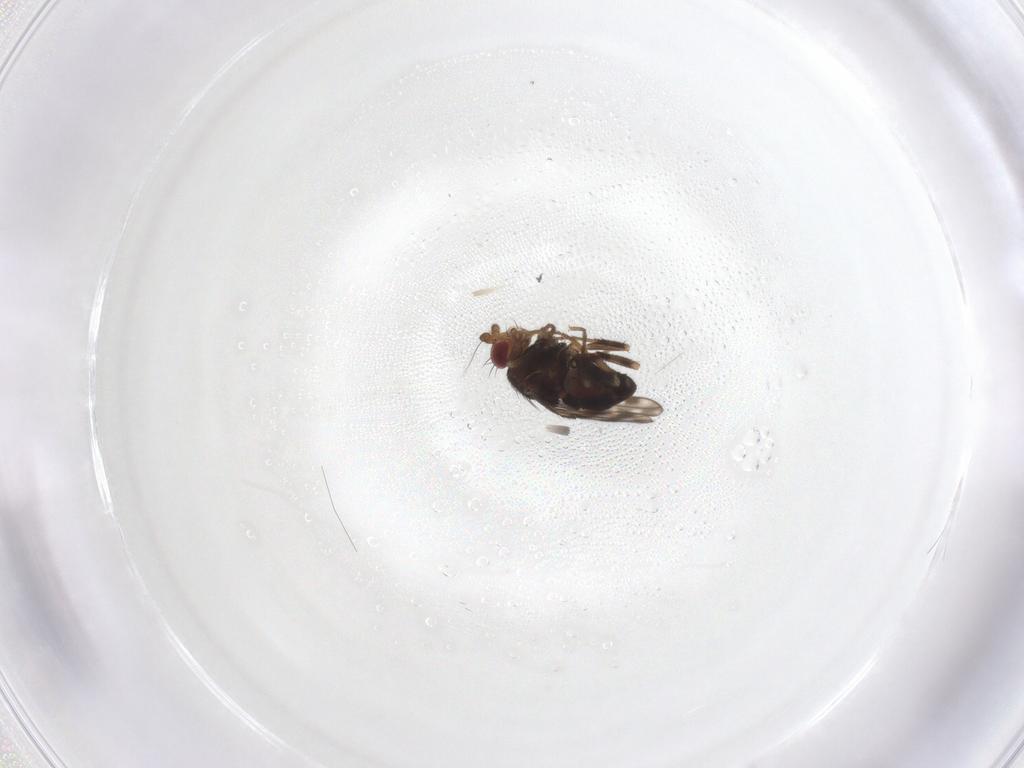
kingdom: Animalia
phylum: Arthropoda
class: Insecta
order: Diptera
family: Sphaeroceridae
